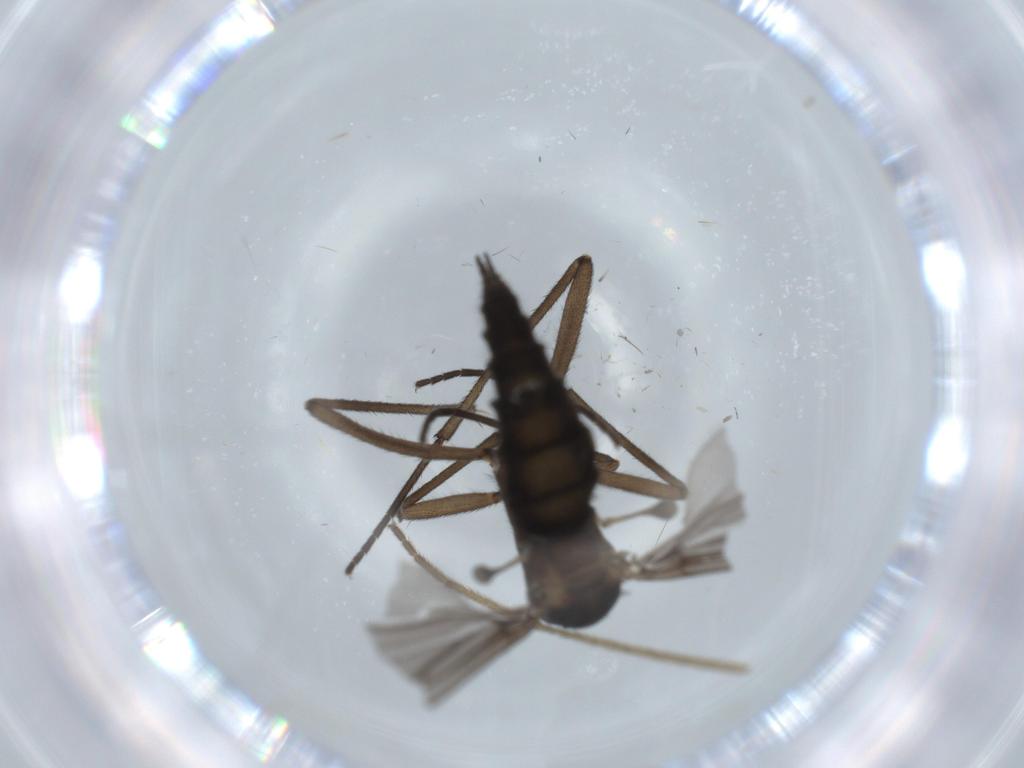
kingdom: Animalia
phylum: Arthropoda
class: Insecta
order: Diptera
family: Sciaridae
